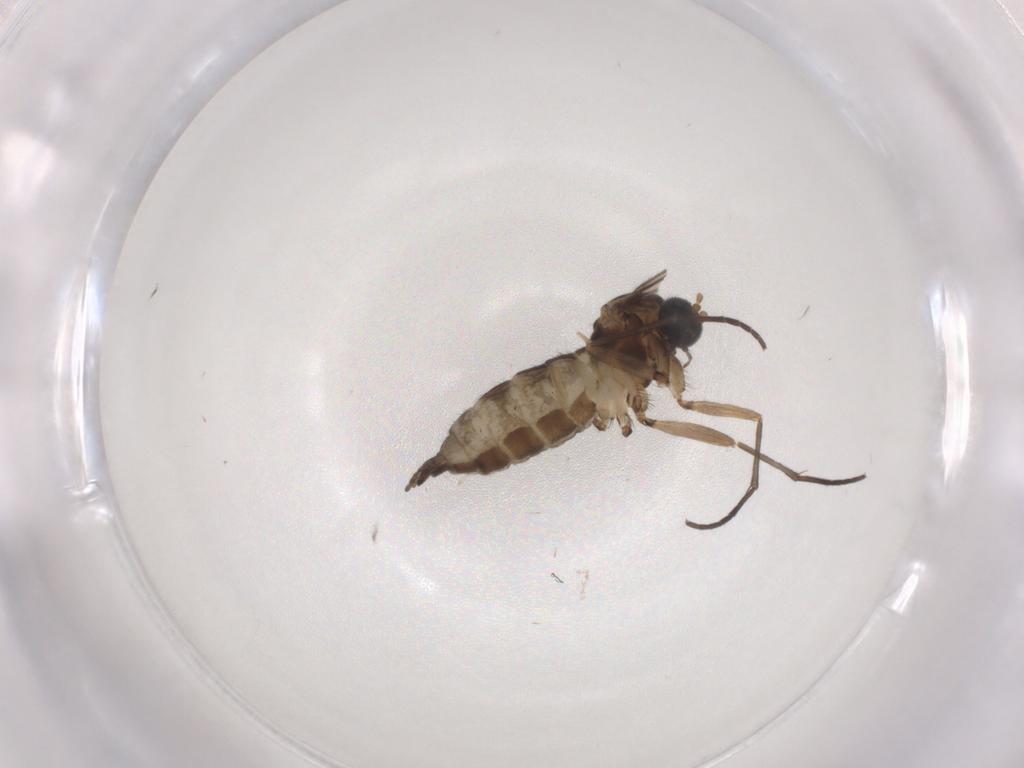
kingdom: Animalia
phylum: Arthropoda
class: Insecta
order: Diptera
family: Sciaridae
